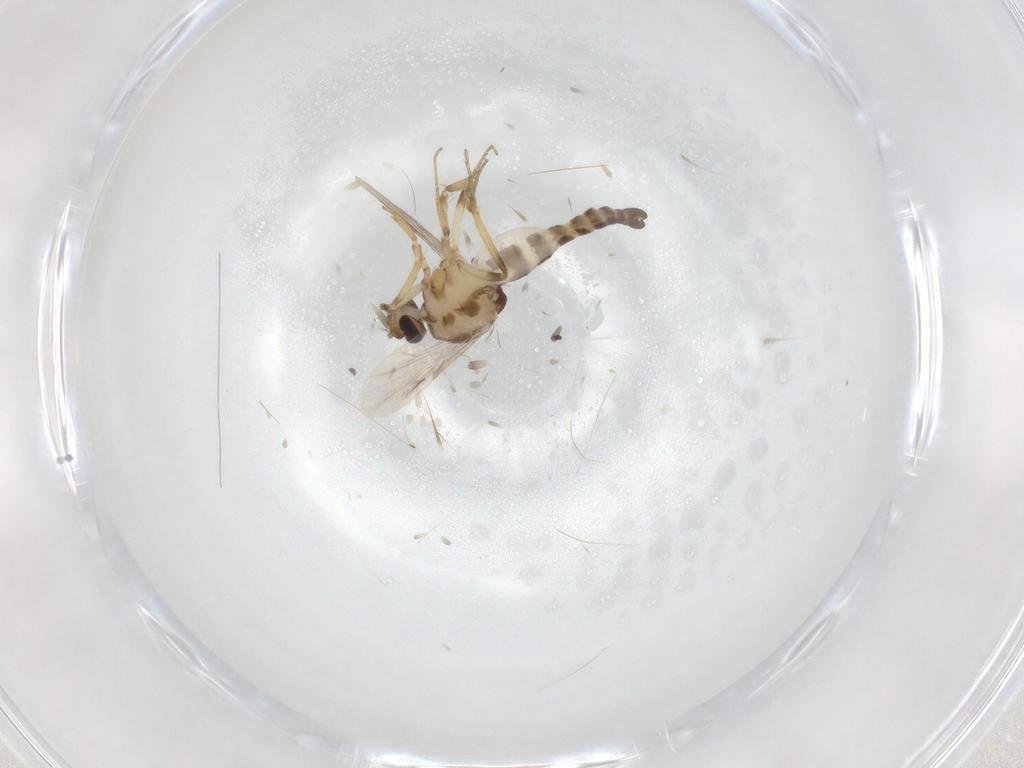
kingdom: Animalia
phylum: Arthropoda
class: Insecta
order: Diptera
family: Ceratopogonidae
